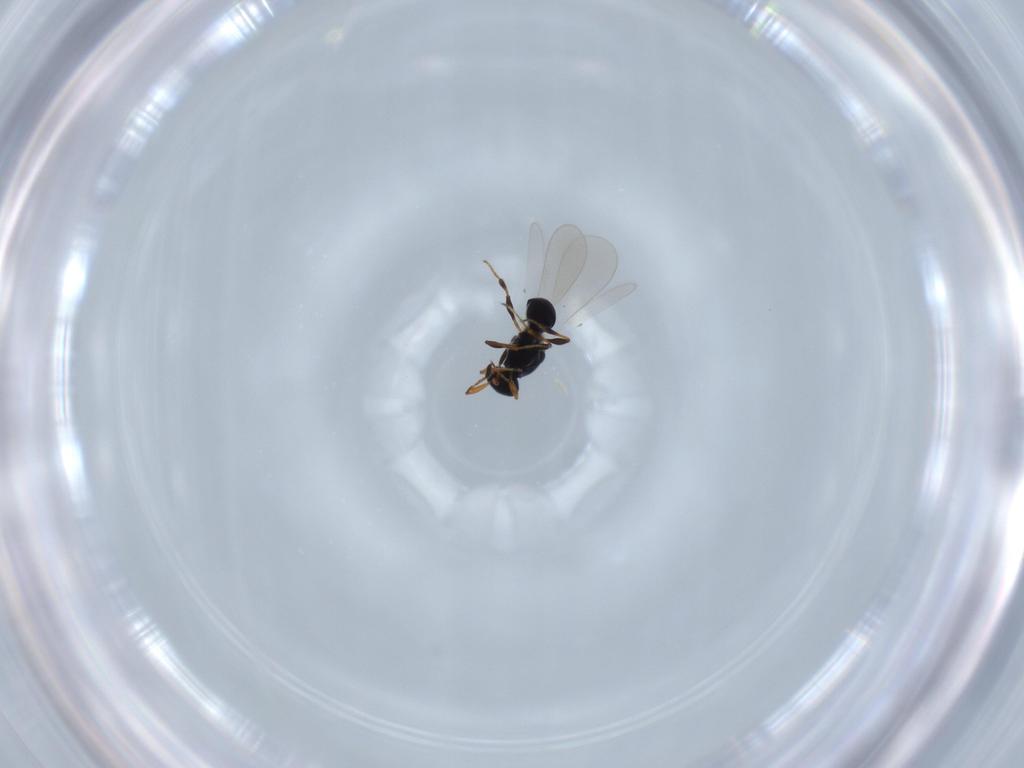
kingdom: Animalia
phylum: Arthropoda
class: Insecta
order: Hymenoptera
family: Platygastridae
